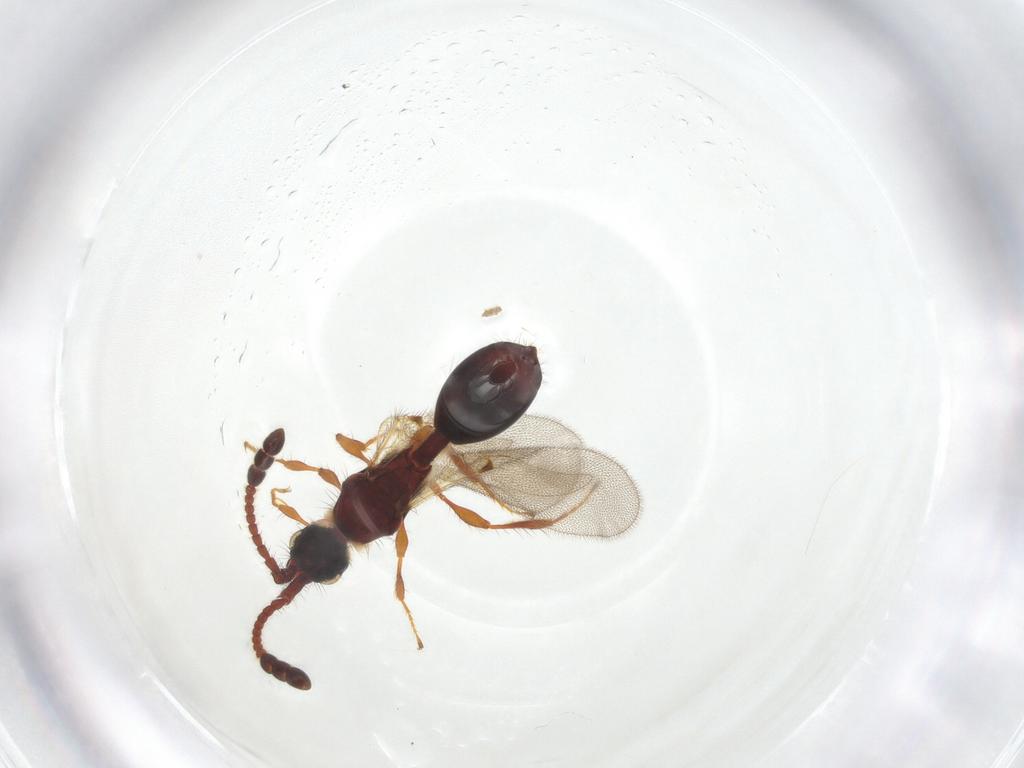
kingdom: Animalia
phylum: Arthropoda
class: Insecta
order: Hymenoptera
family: Diapriidae
